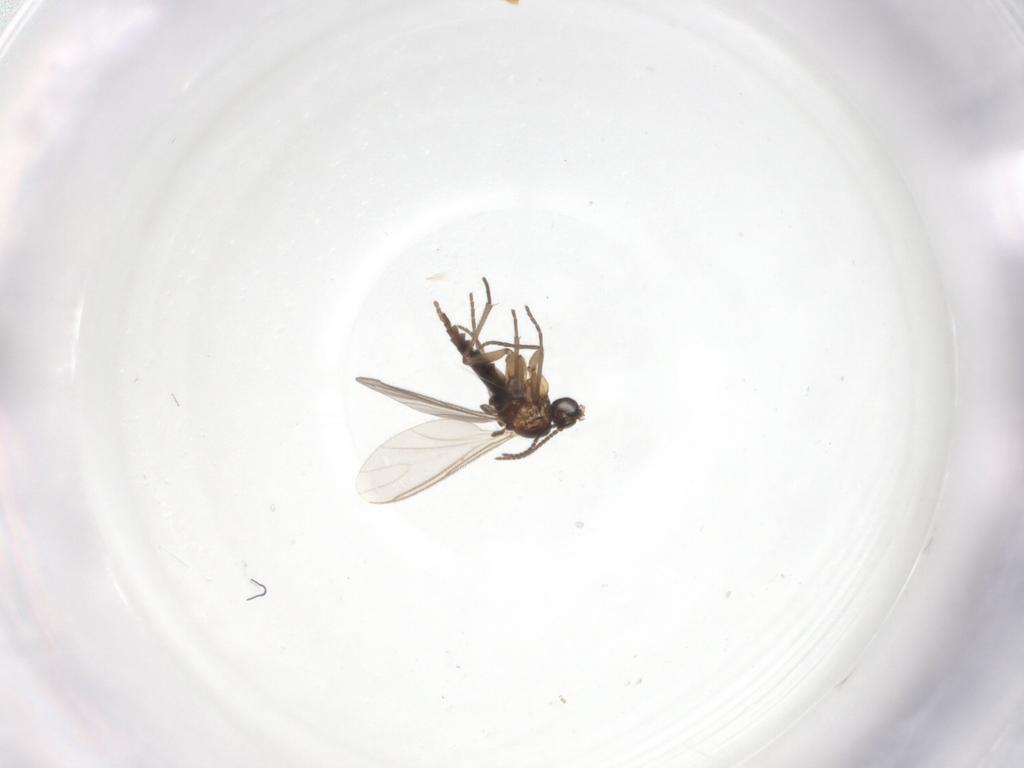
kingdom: Animalia
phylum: Arthropoda
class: Insecta
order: Diptera
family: Sciaridae
